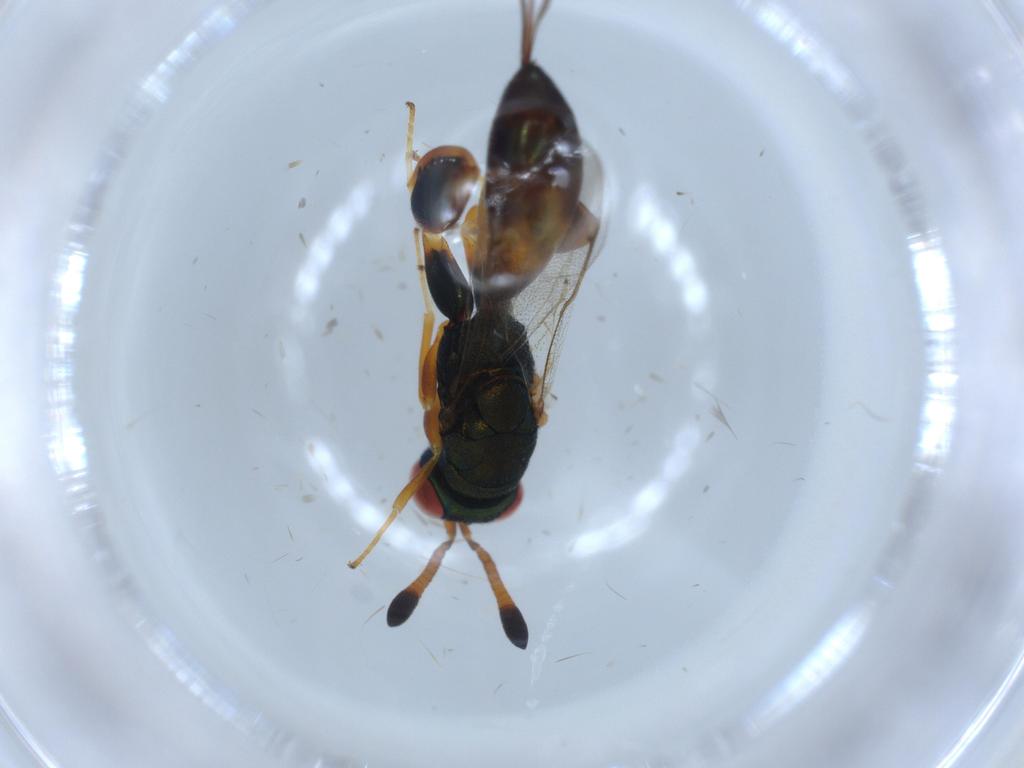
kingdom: Animalia
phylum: Arthropoda
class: Insecta
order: Hymenoptera
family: Torymidae
